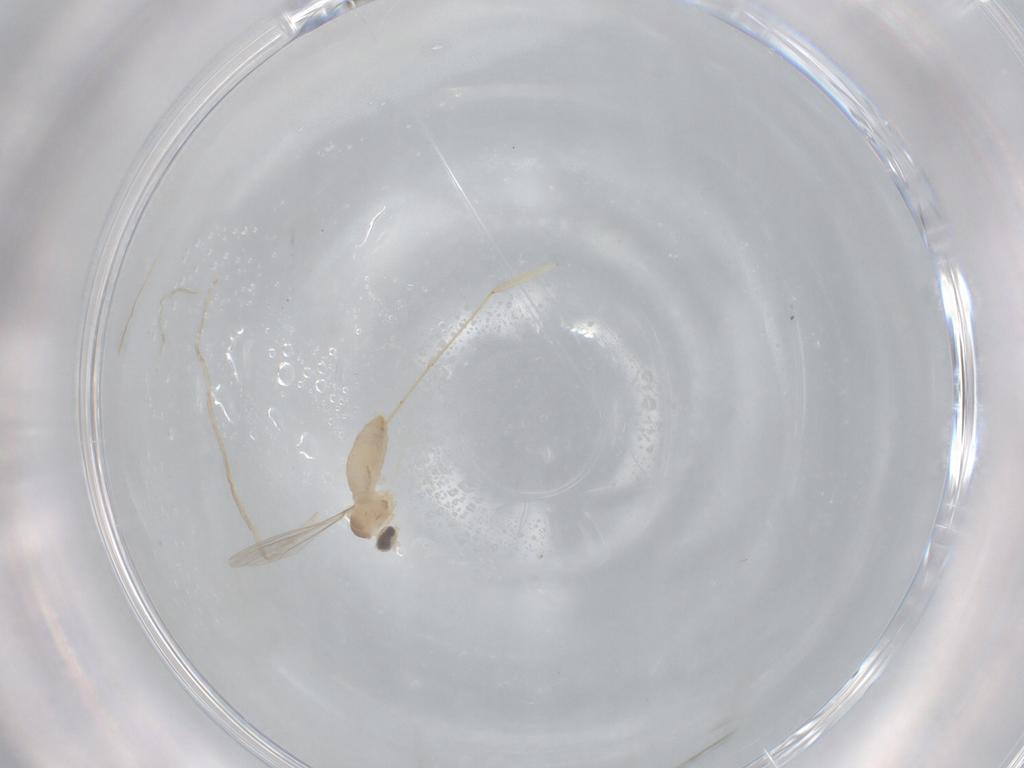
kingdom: Animalia
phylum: Arthropoda
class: Insecta
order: Diptera
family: Cecidomyiidae
